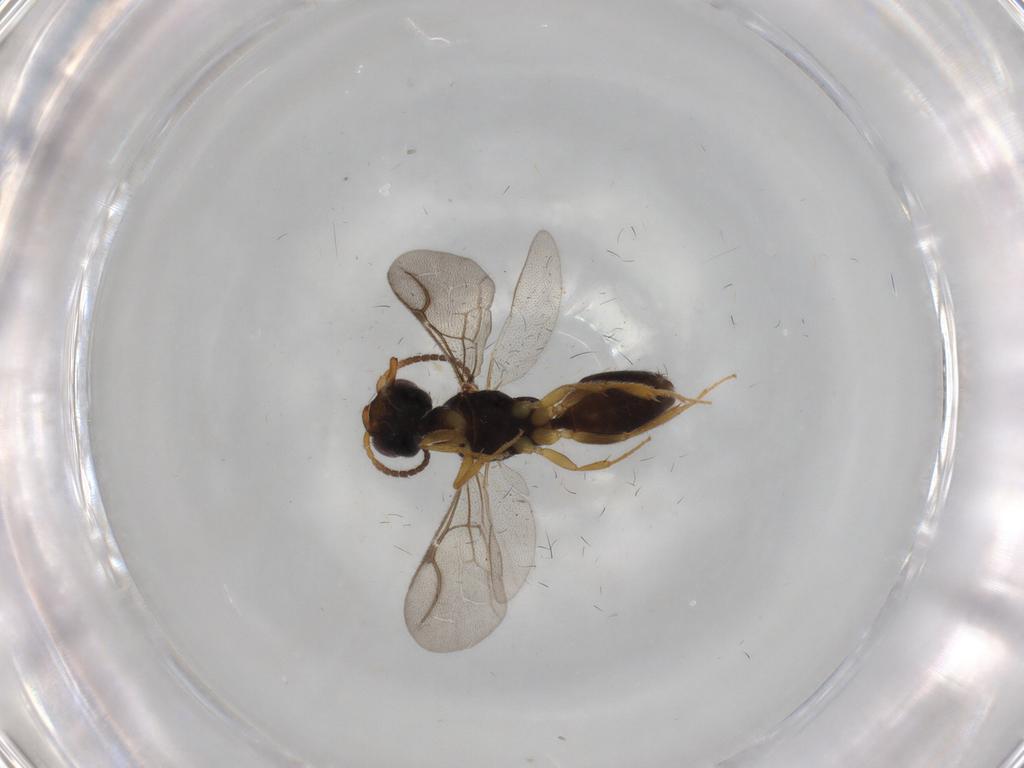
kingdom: Animalia
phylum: Arthropoda
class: Insecta
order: Hymenoptera
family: Bethylidae
